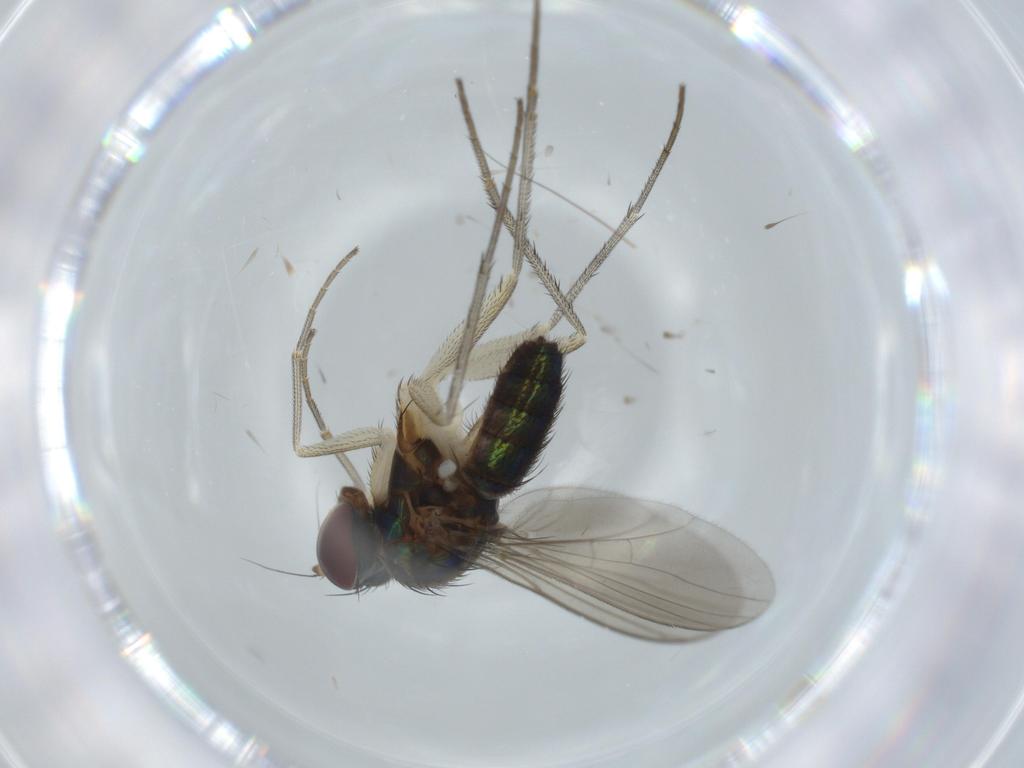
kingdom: Animalia
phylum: Arthropoda
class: Insecta
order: Diptera
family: Dolichopodidae
